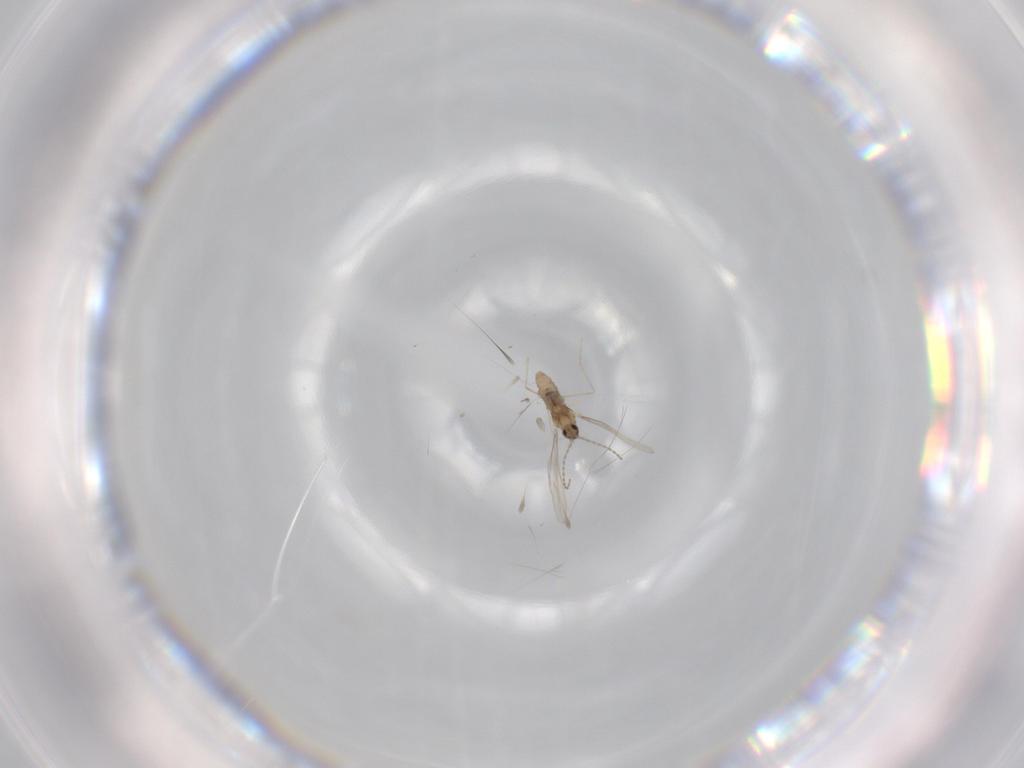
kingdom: Animalia
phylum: Arthropoda
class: Insecta
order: Diptera
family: Cecidomyiidae
